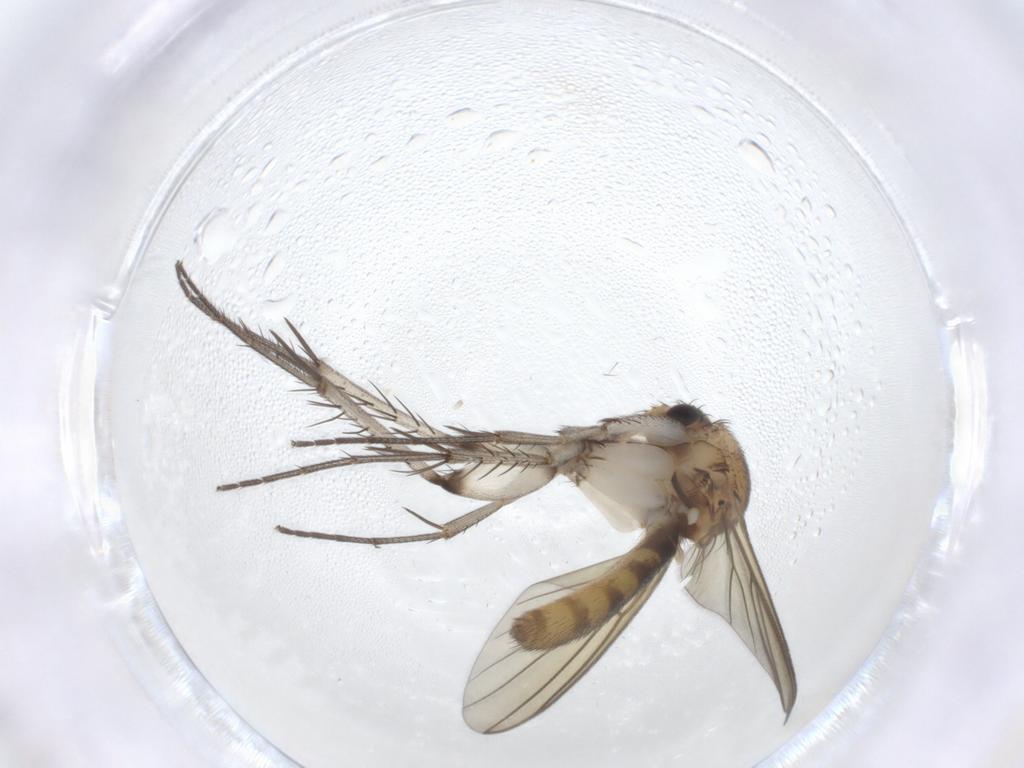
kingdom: Animalia
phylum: Arthropoda
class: Insecta
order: Diptera
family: Mycetophilidae
